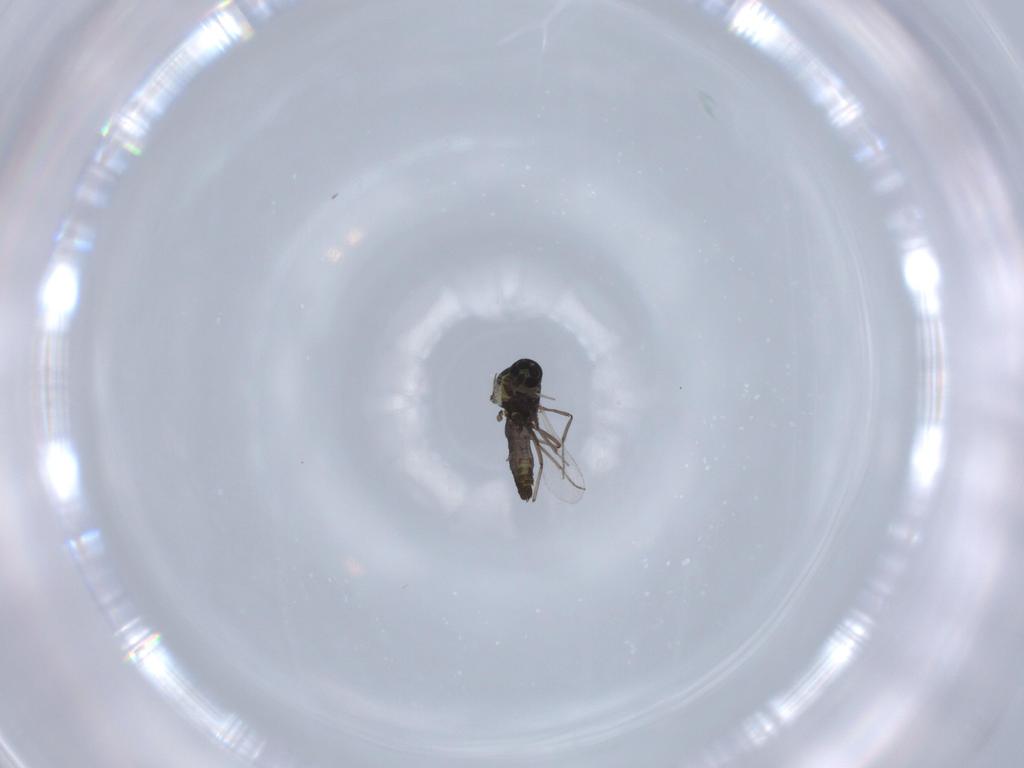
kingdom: Animalia
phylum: Arthropoda
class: Insecta
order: Diptera
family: Ceratopogonidae
